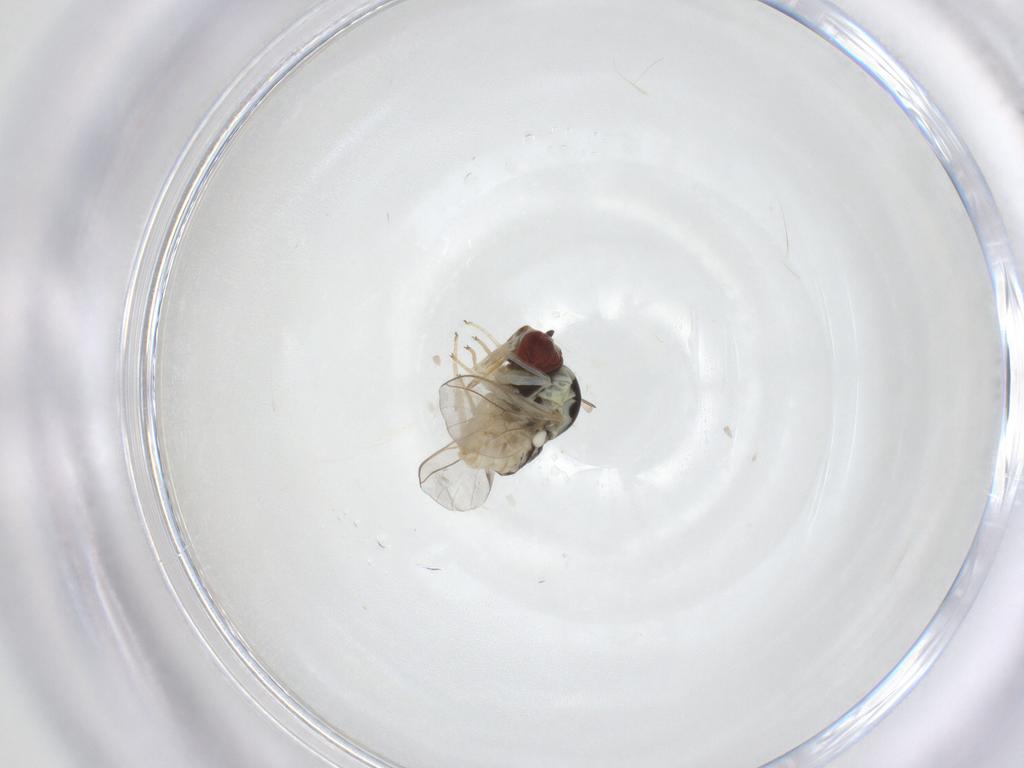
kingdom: Animalia
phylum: Arthropoda
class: Insecta
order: Diptera
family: Bombyliidae
